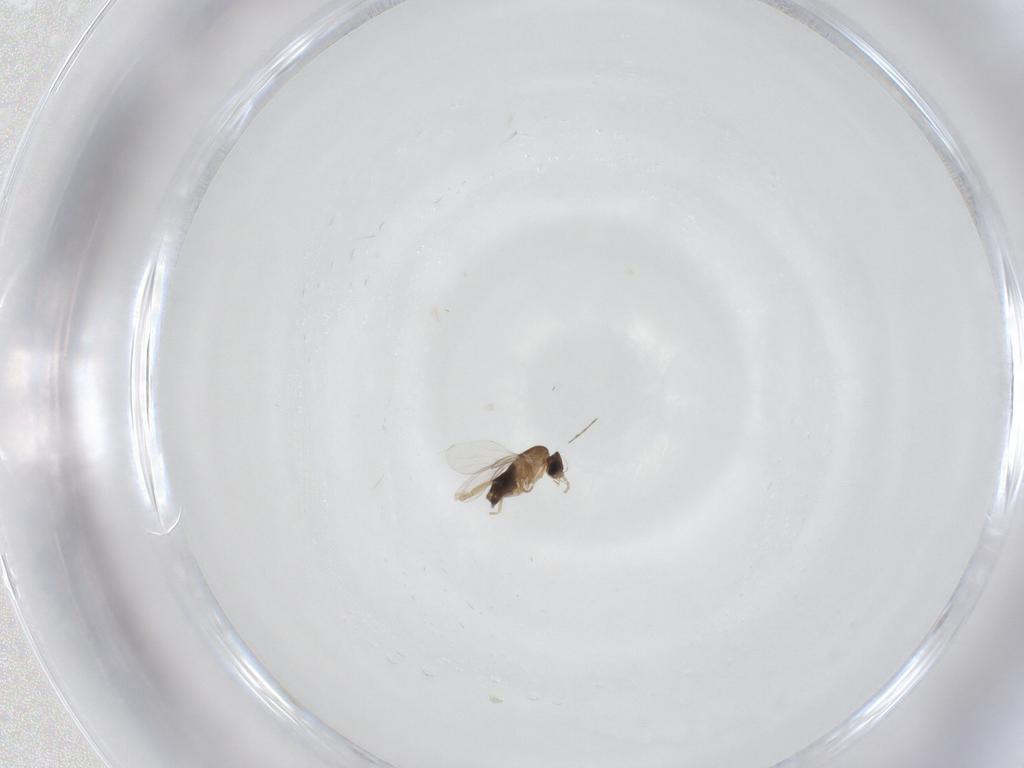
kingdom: Animalia
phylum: Arthropoda
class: Insecta
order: Diptera
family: Phoridae
